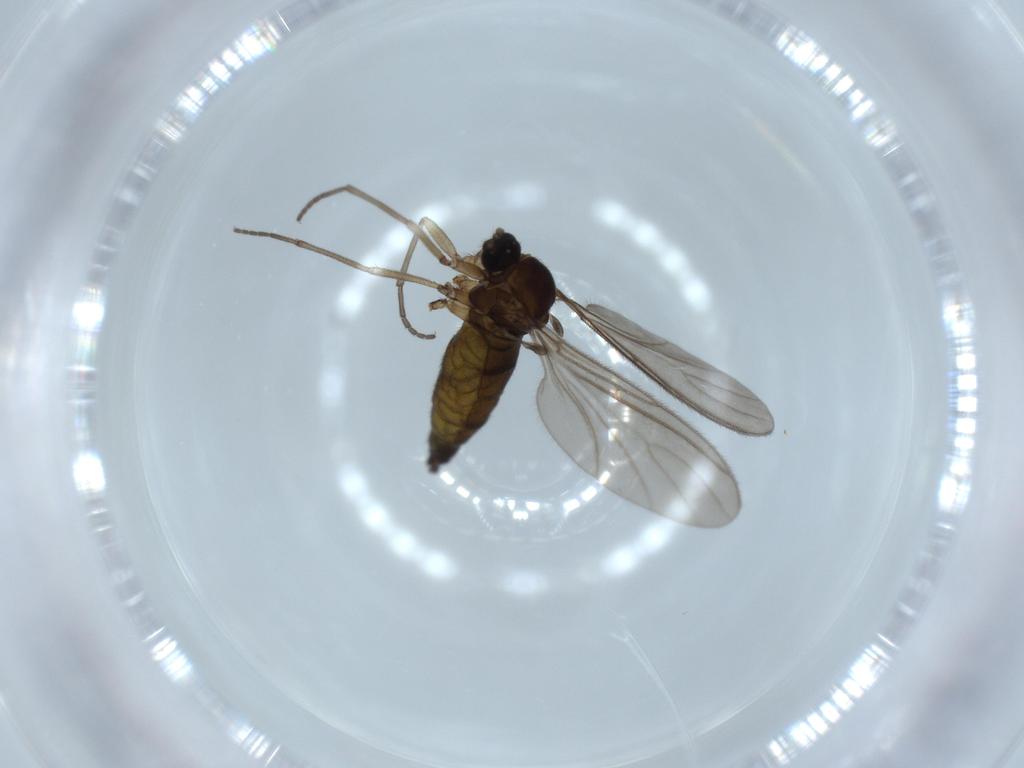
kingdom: Animalia
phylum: Arthropoda
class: Insecta
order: Diptera
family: Sciaridae
